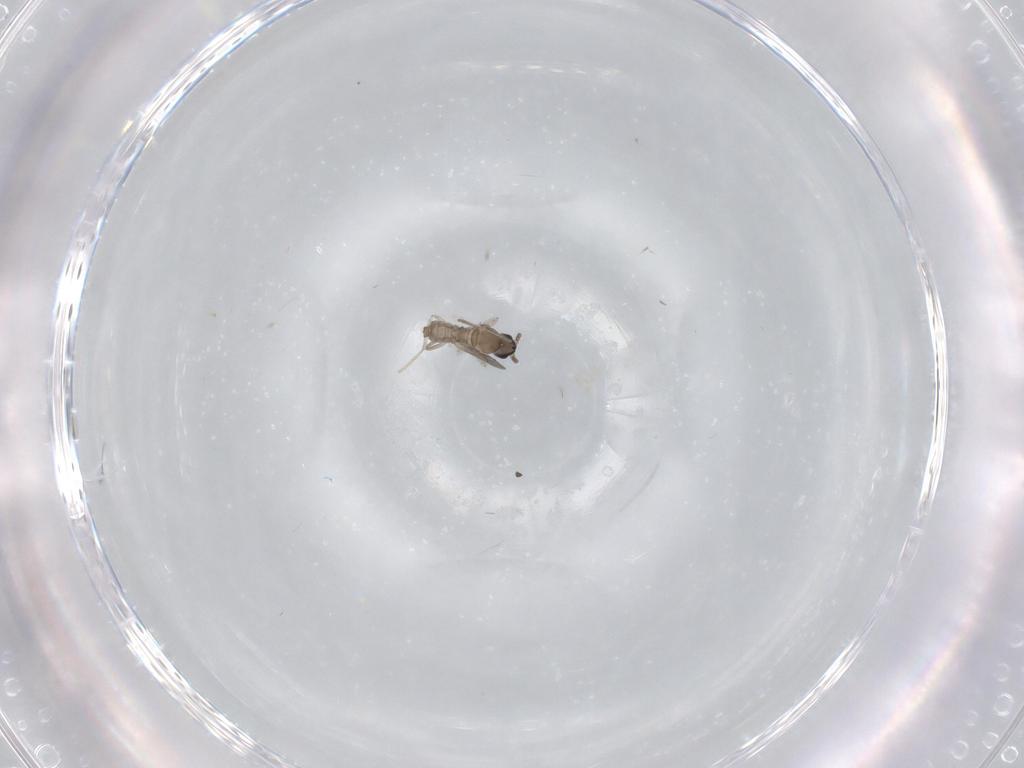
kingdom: Animalia
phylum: Arthropoda
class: Insecta
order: Diptera
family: Phoridae
